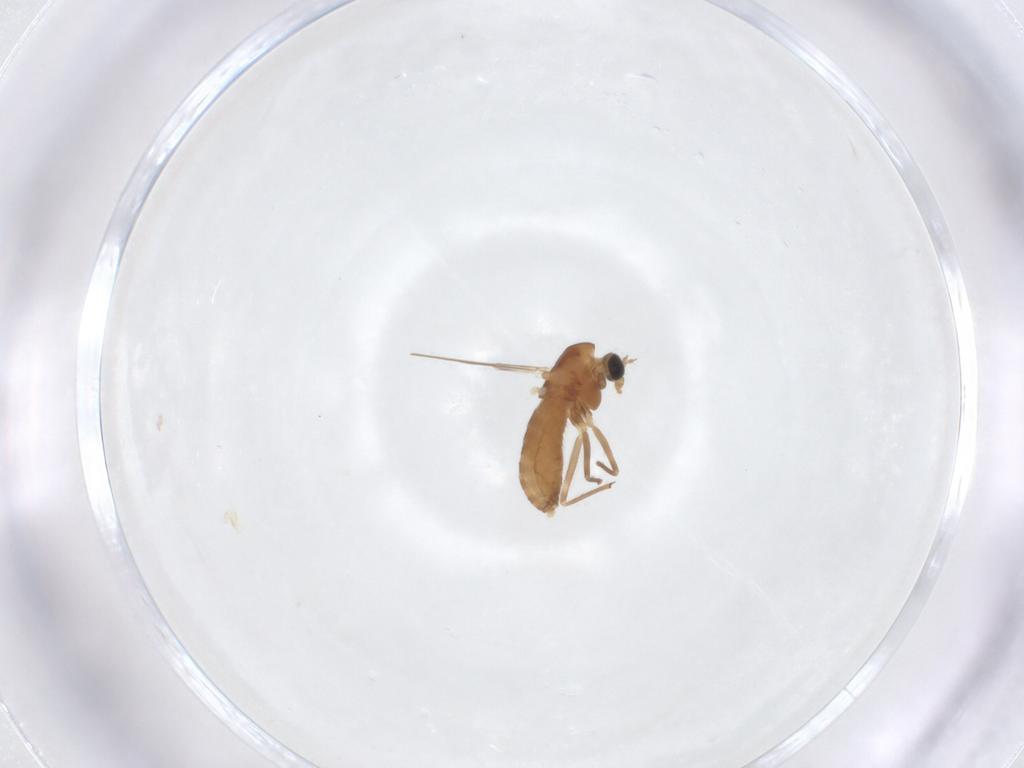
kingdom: Animalia
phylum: Arthropoda
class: Insecta
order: Diptera
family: Chironomidae
